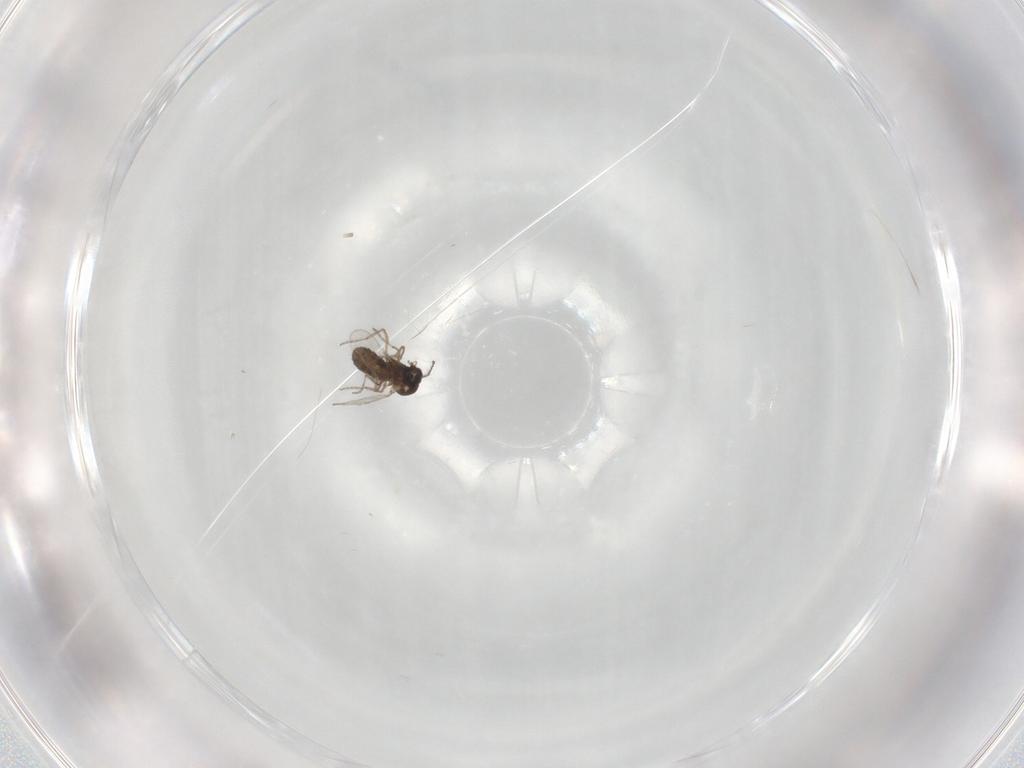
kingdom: Animalia
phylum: Arthropoda
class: Insecta
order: Diptera
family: Ceratopogonidae
